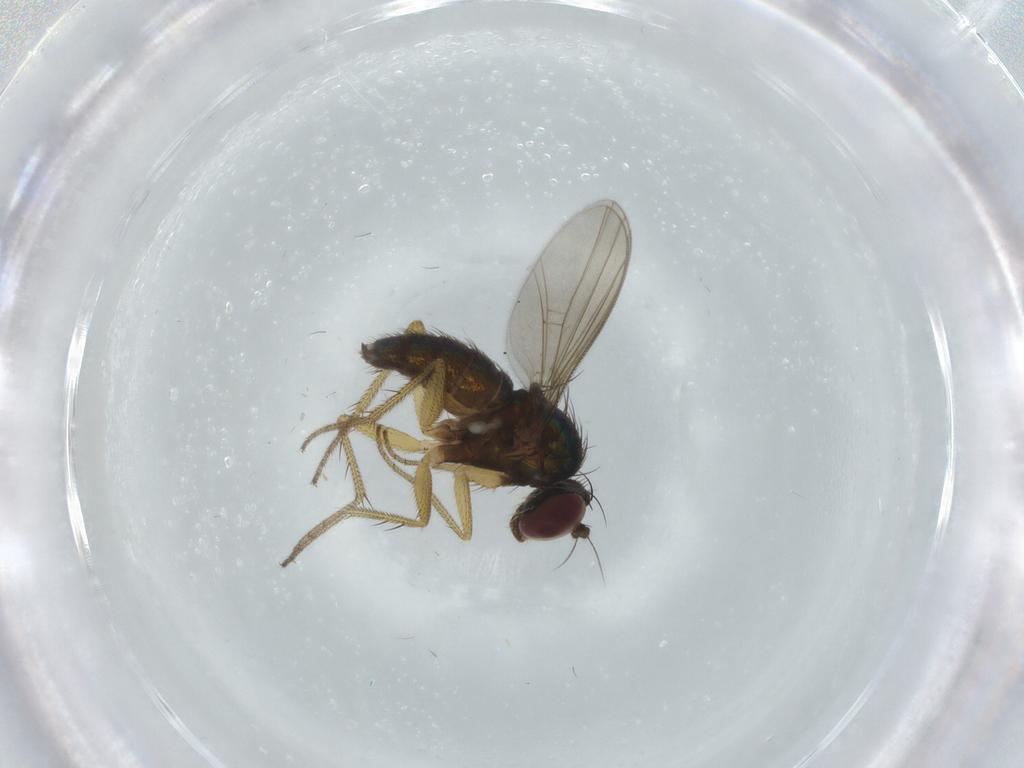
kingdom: Animalia
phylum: Arthropoda
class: Insecta
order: Diptera
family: Dolichopodidae
